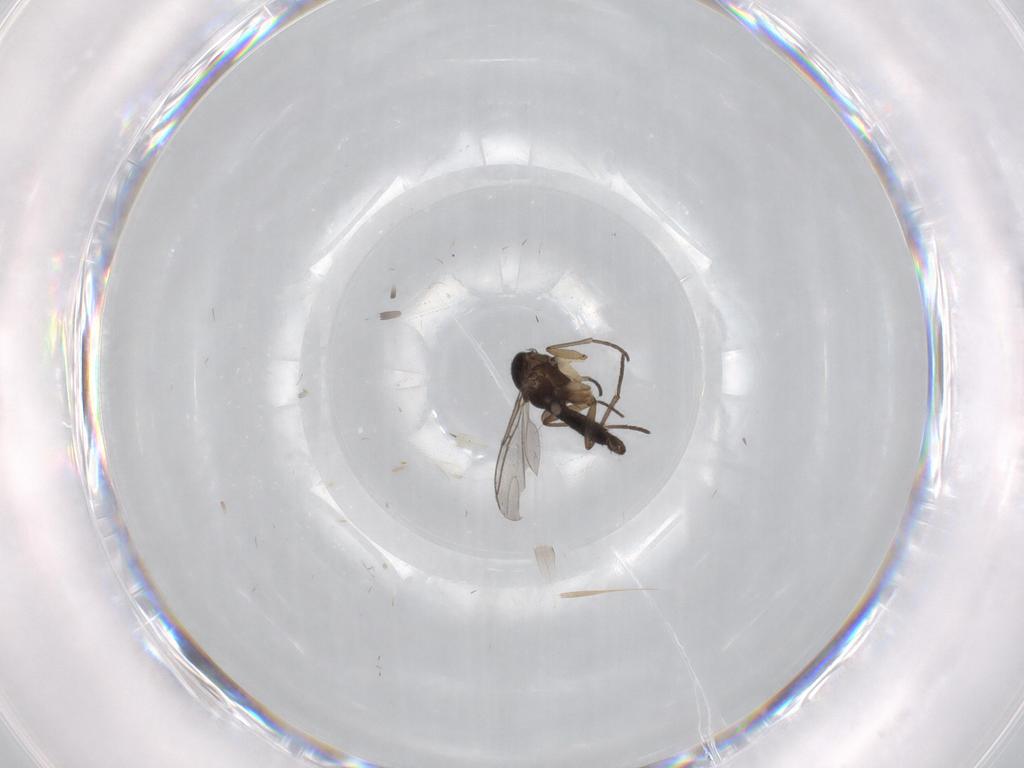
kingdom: Animalia
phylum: Arthropoda
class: Insecta
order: Diptera
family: Sciaridae
